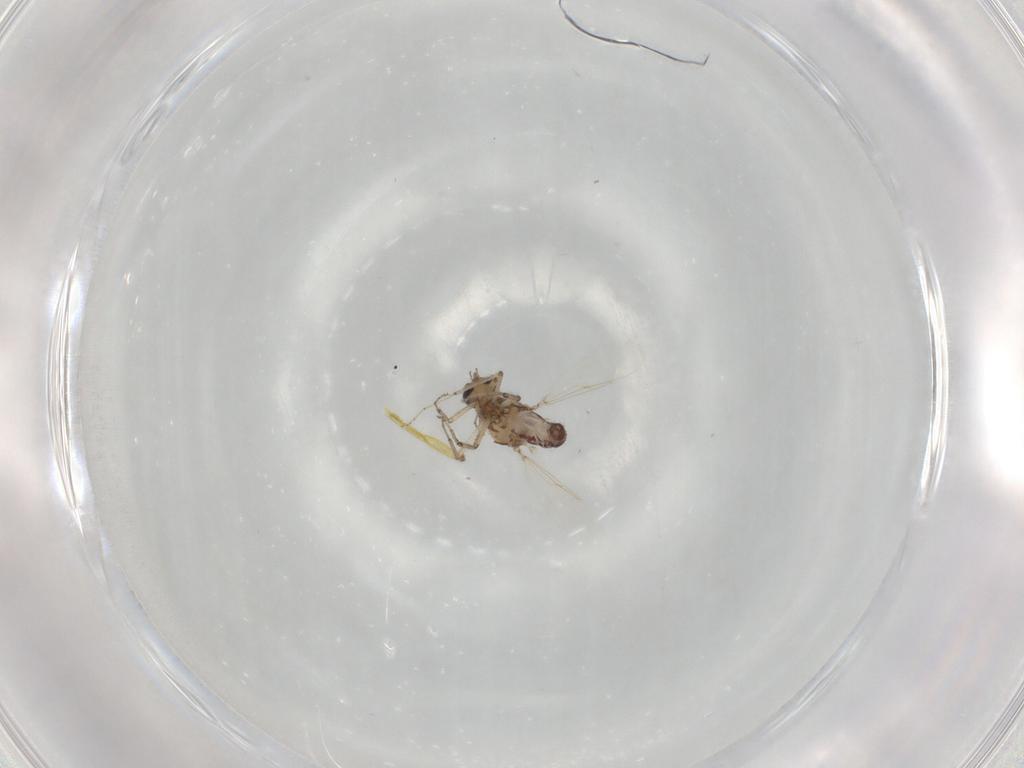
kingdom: Animalia
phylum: Arthropoda
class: Insecta
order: Diptera
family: Ceratopogonidae
